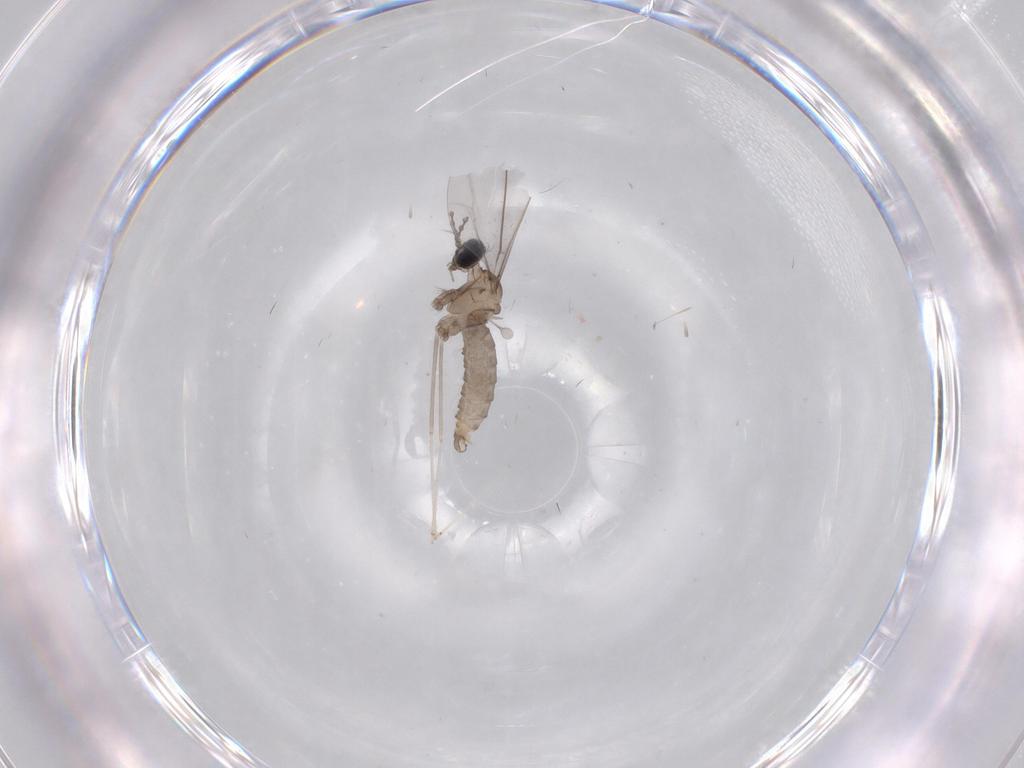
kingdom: Animalia
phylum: Arthropoda
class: Insecta
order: Diptera
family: Cecidomyiidae
